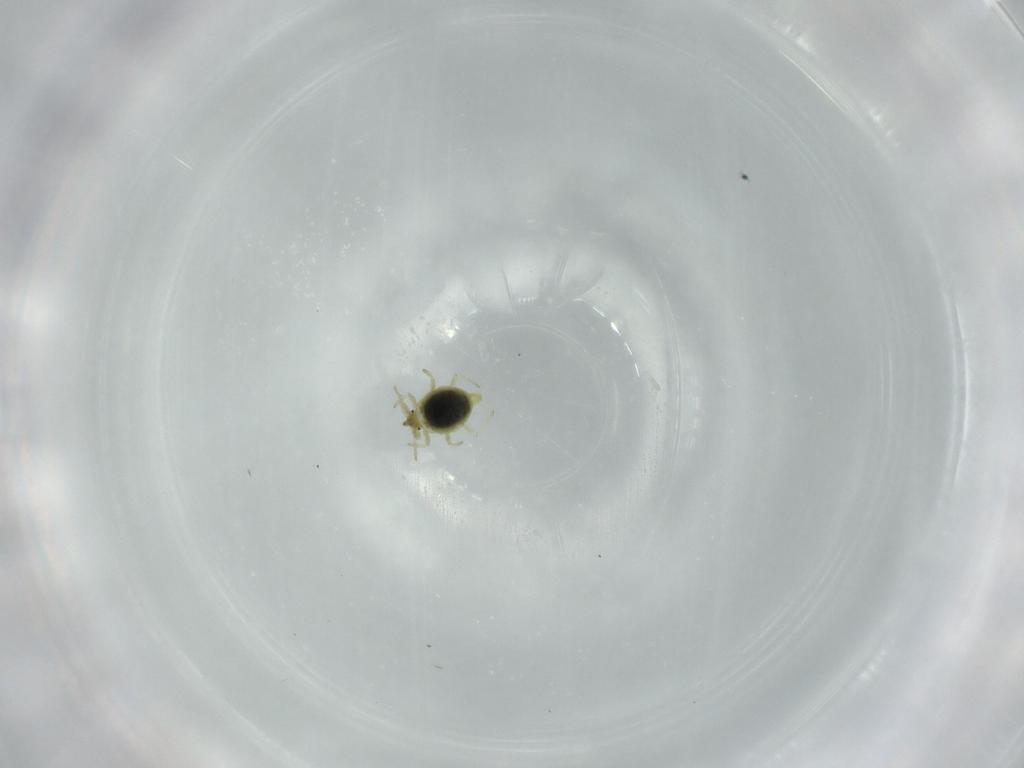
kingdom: Animalia
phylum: Arthropoda
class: Insecta
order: Neuroptera
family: Coniopterygidae
